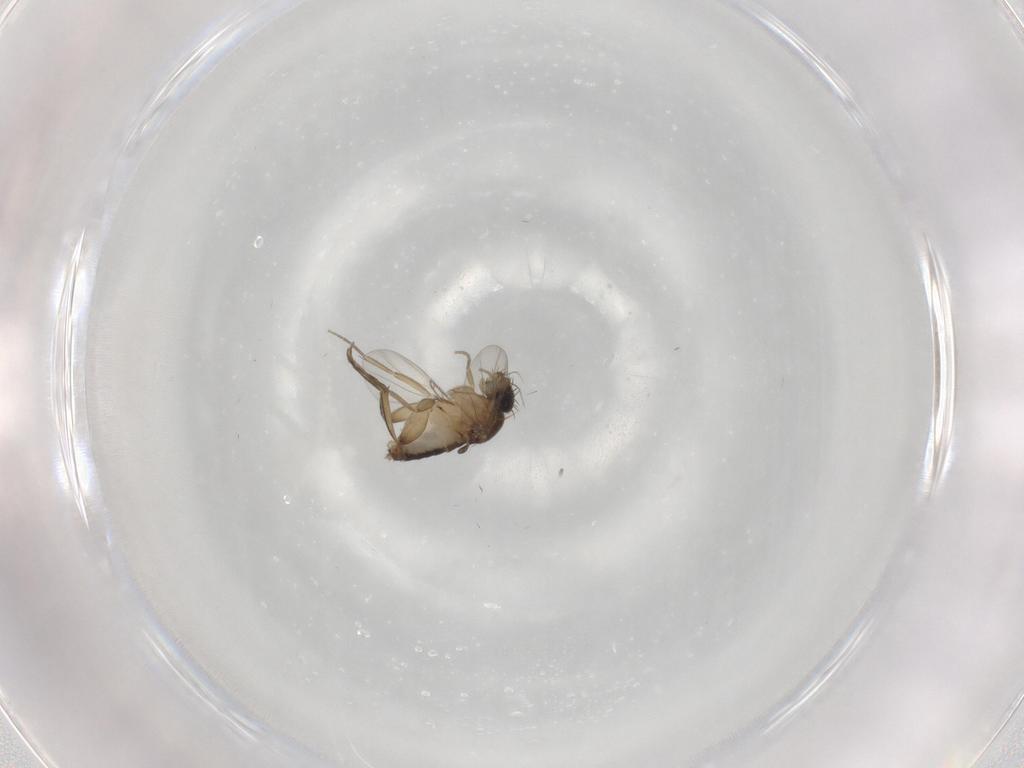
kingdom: Animalia
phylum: Arthropoda
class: Insecta
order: Diptera
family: Phoridae
